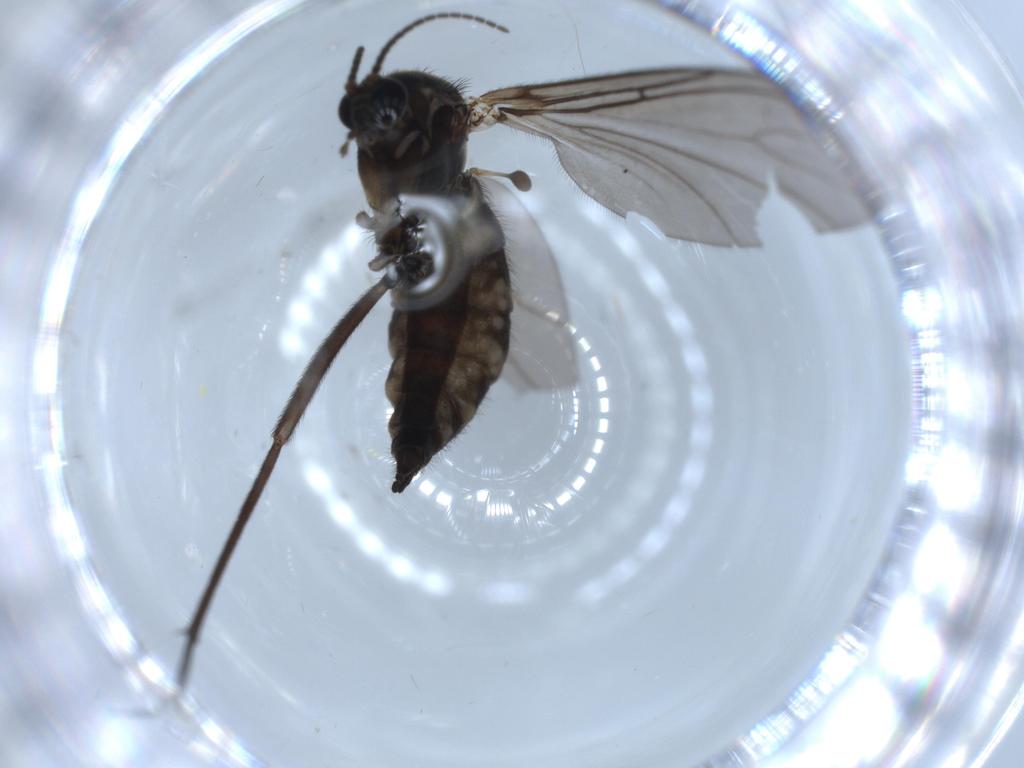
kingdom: Animalia
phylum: Arthropoda
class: Insecta
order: Diptera
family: Sciaridae
